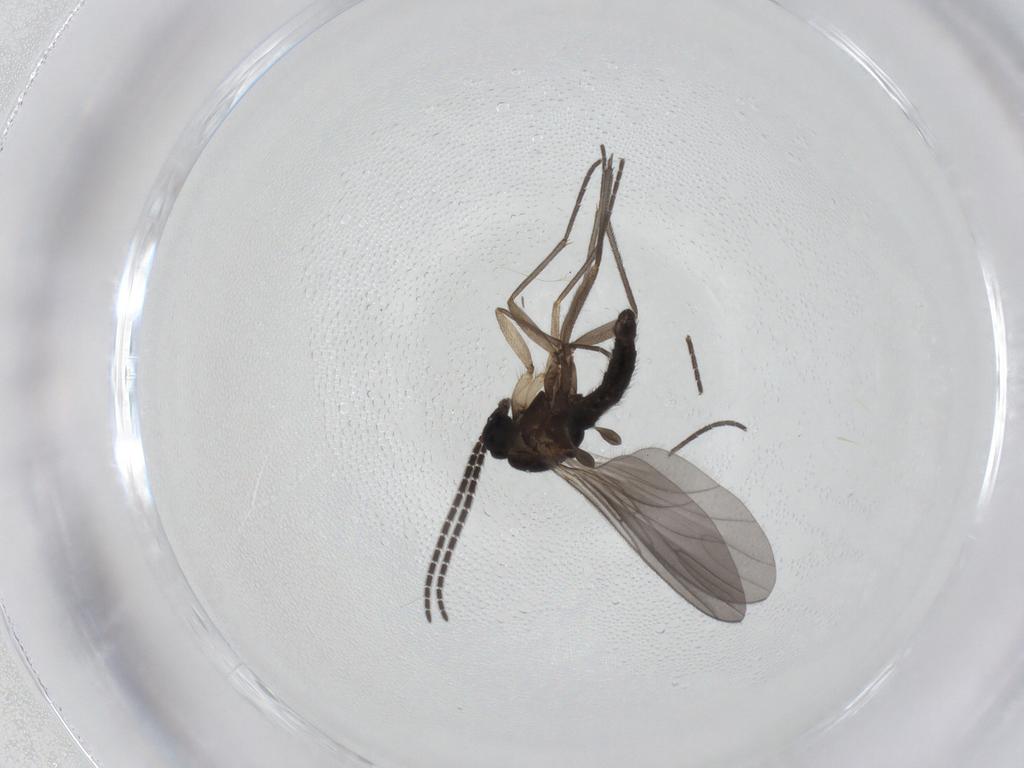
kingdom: Animalia
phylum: Arthropoda
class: Insecta
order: Diptera
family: Sciaridae
